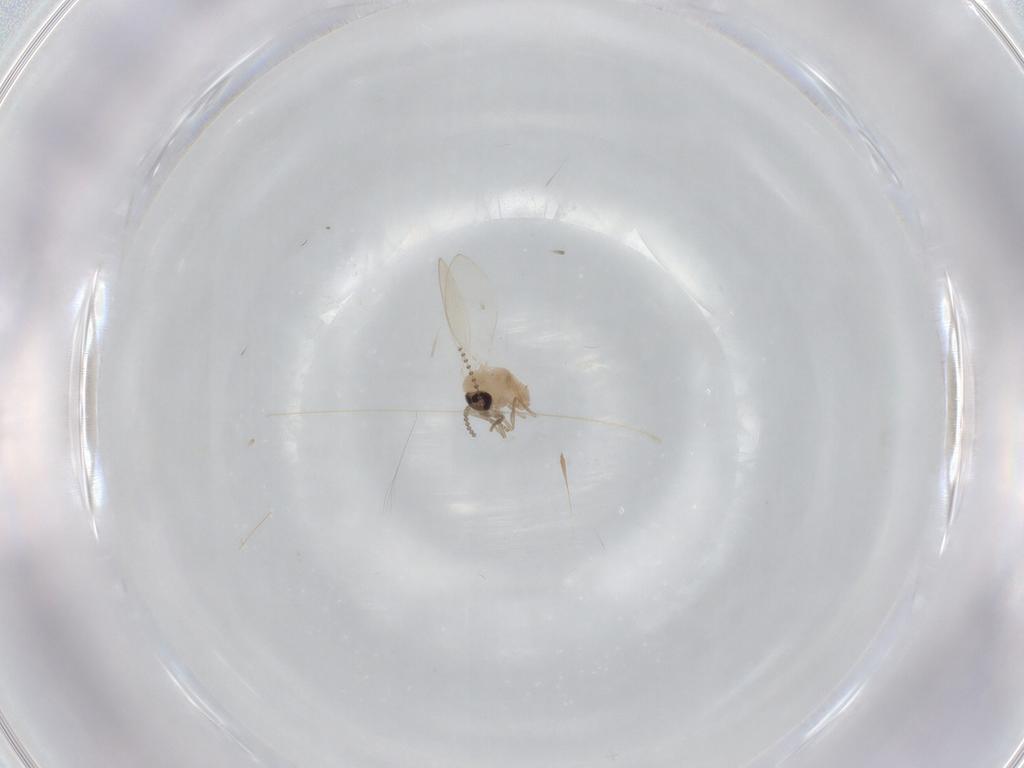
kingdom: Animalia
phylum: Arthropoda
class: Insecta
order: Diptera
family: Psychodidae
